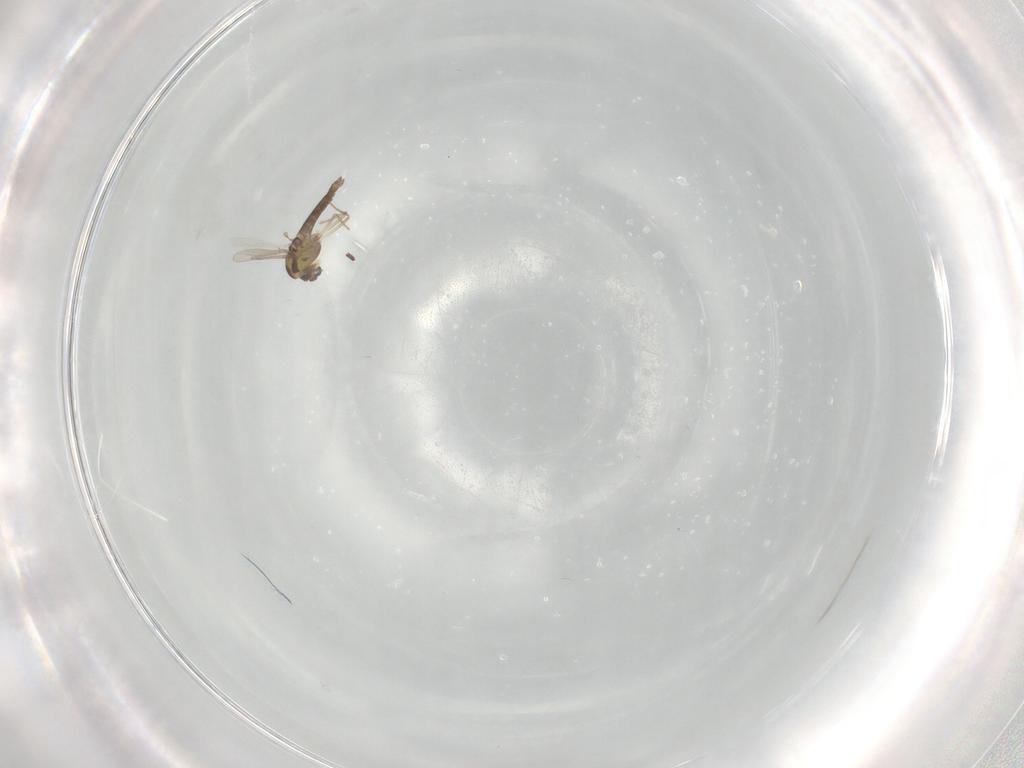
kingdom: Animalia
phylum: Arthropoda
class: Insecta
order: Diptera
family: Chironomidae
